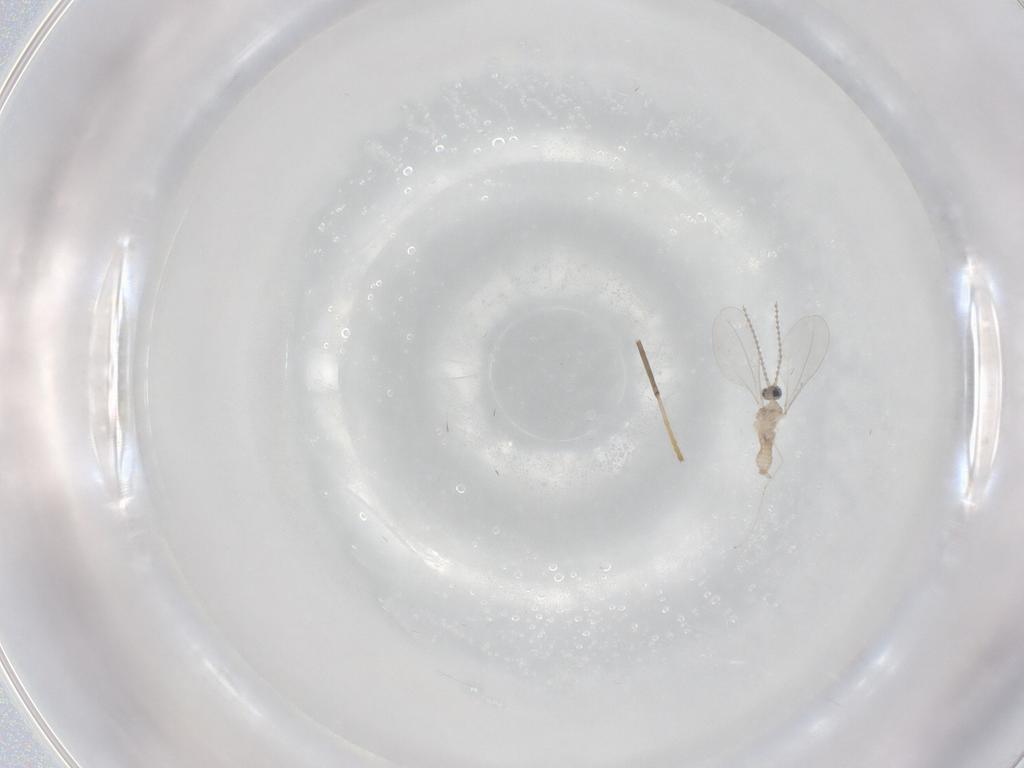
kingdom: Animalia
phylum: Arthropoda
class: Insecta
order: Diptera
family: Cecidomyiidae
